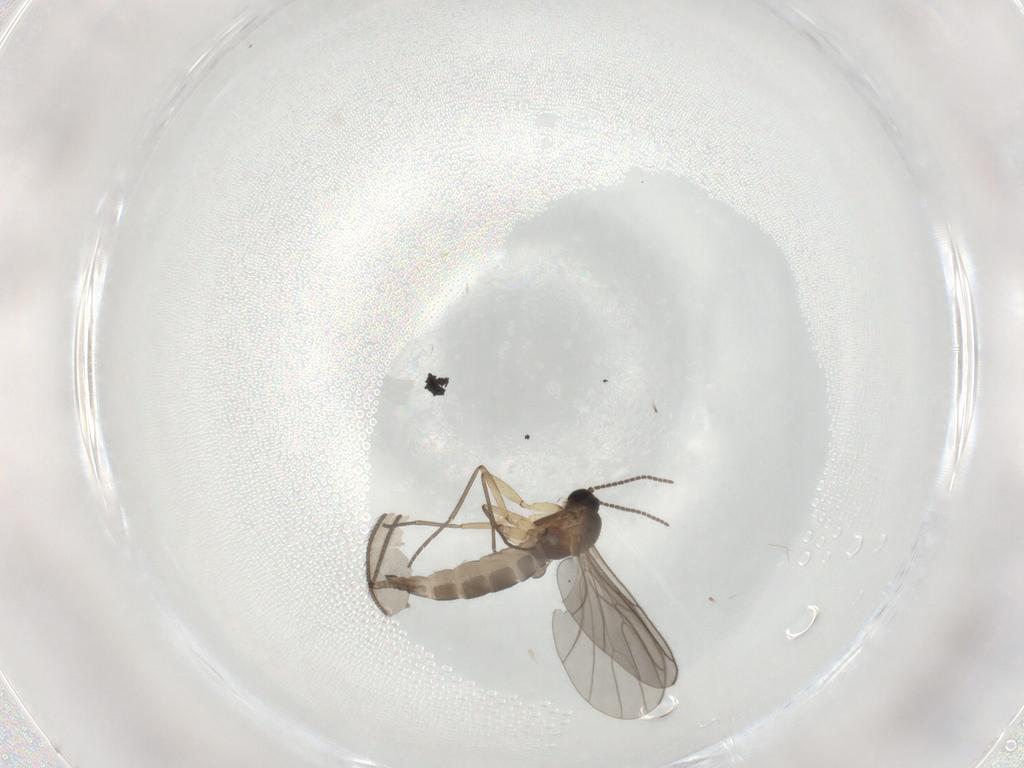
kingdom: Animalia
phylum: Arthropoda
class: Insecta
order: Diptera
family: Sciaridae
